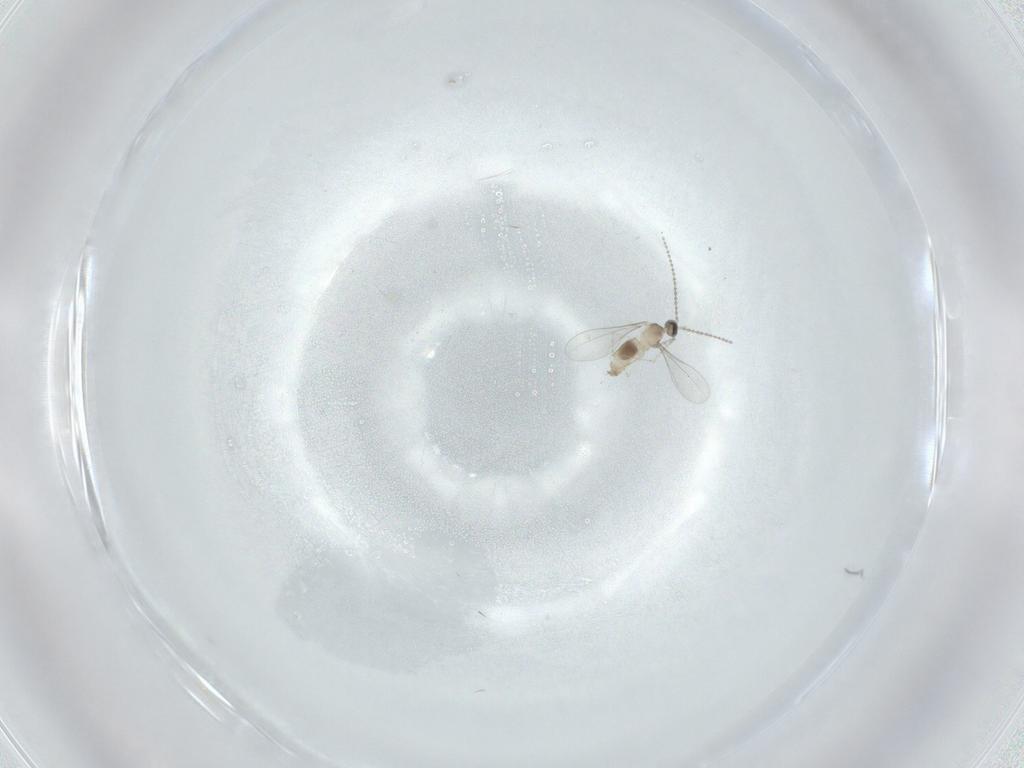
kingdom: Animalia
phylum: Arthropoda
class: Insecta
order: Diptera
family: Cecidomyiidae
